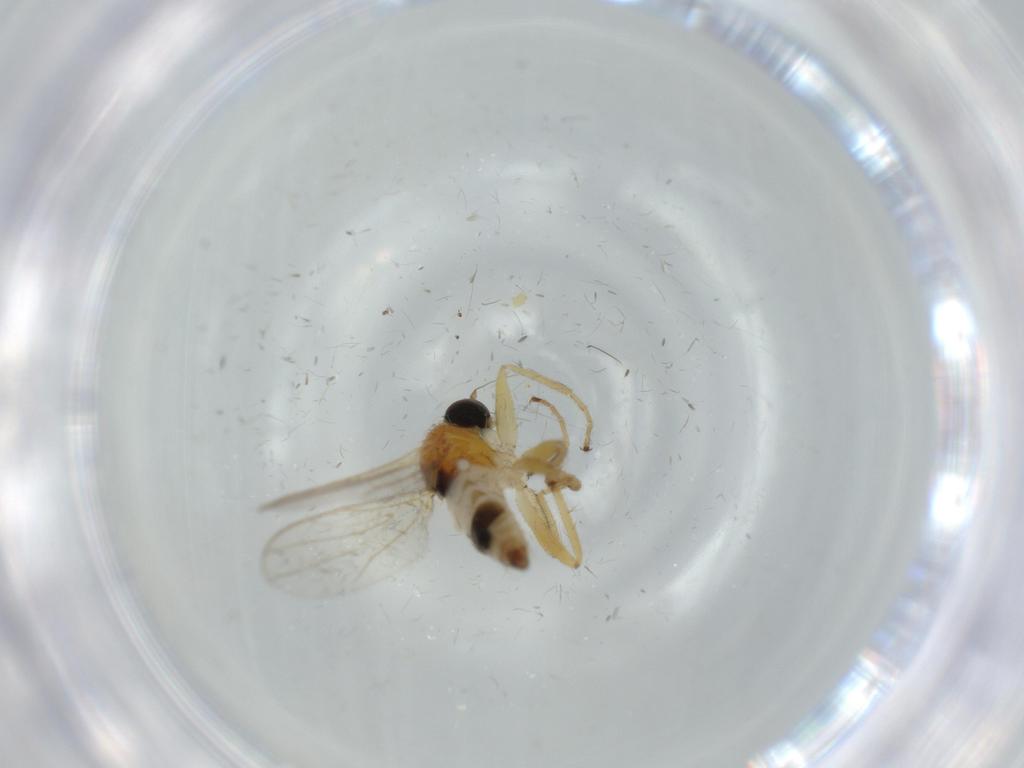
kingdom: Animalia
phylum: Arthropoda
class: Insecta
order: Diptera
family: Hybotidae
